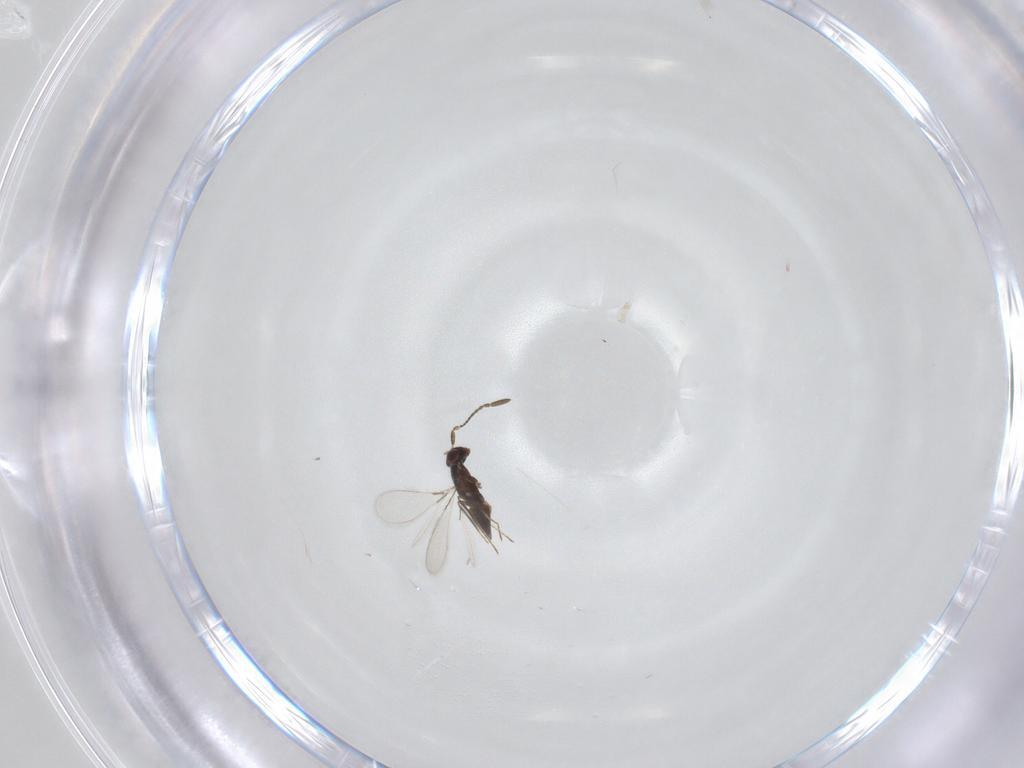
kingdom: Animalia
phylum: Arthropoda
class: Insecta
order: Hymenoptera
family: Mymaridae
